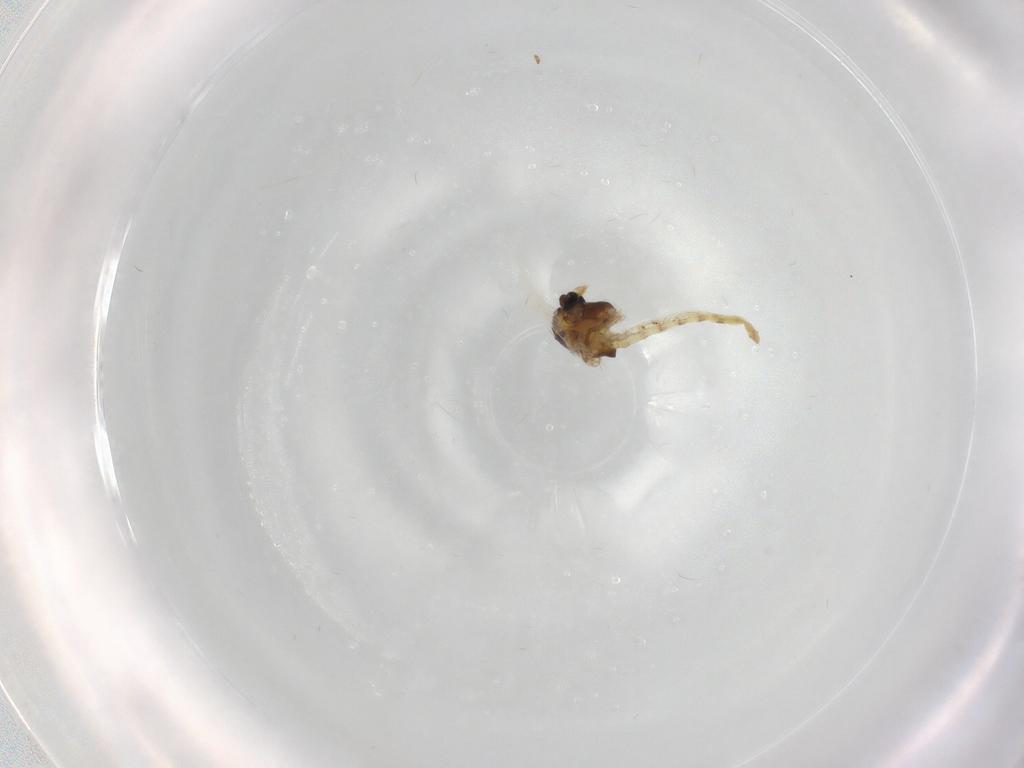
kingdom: Animalia
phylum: Arthropoda
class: Insecta
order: Diptera
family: Chironomidae
